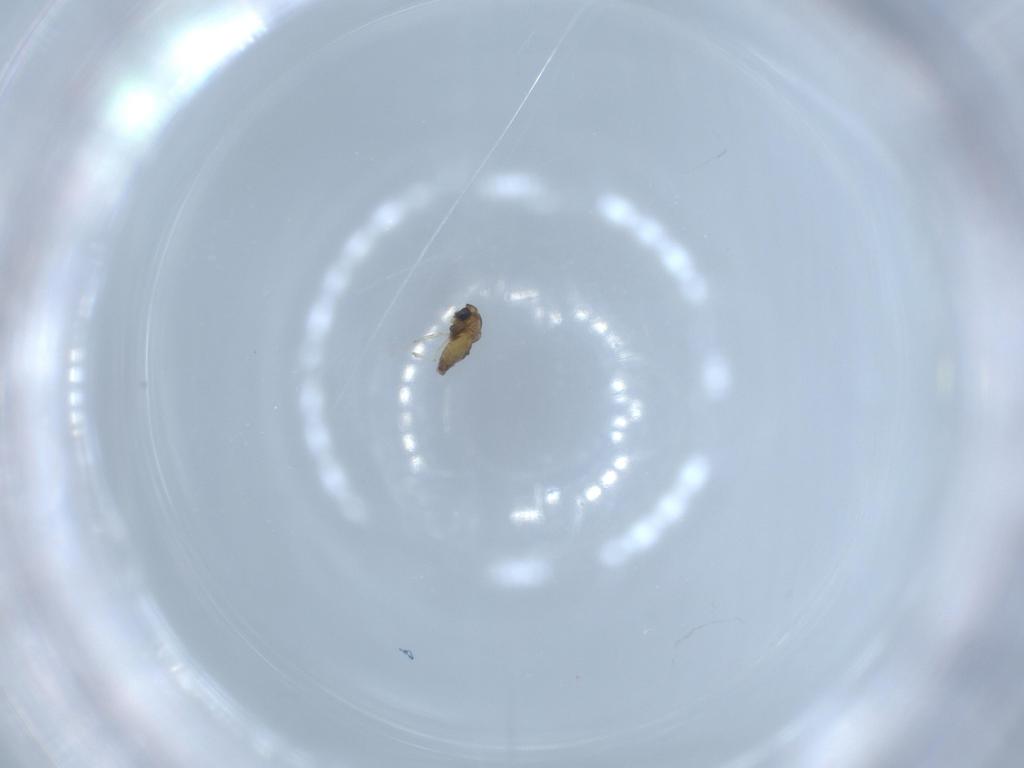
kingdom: Animalia
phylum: Arthropoda
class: Insecta
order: Diptera
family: Chironomidae
